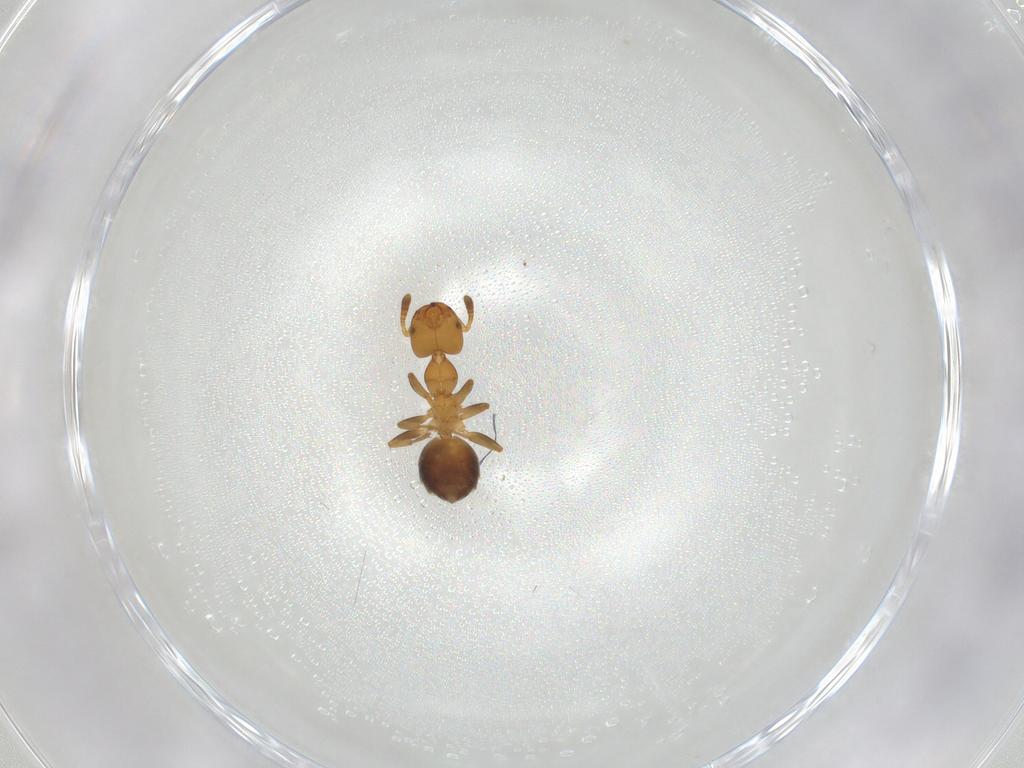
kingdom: Animalia
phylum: Arthropoda
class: Insecta
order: Hymenoptera
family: Formicidae
